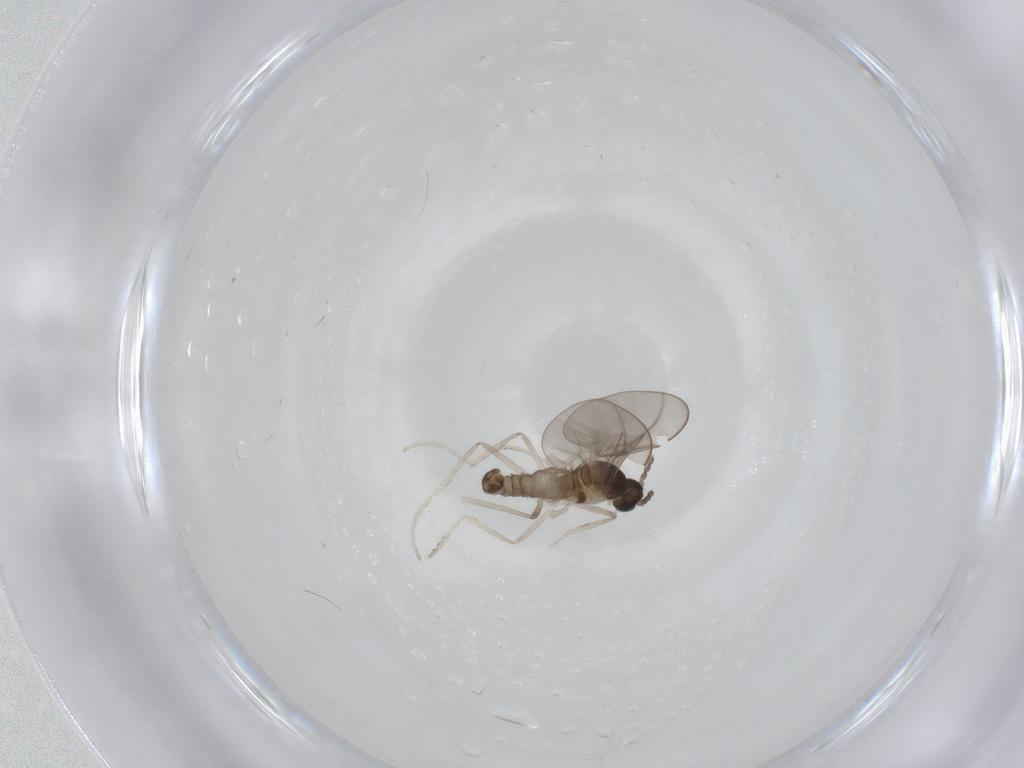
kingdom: Animalia
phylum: Arthropoda
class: Insecta
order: Diptera
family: Cecidomyiidae
